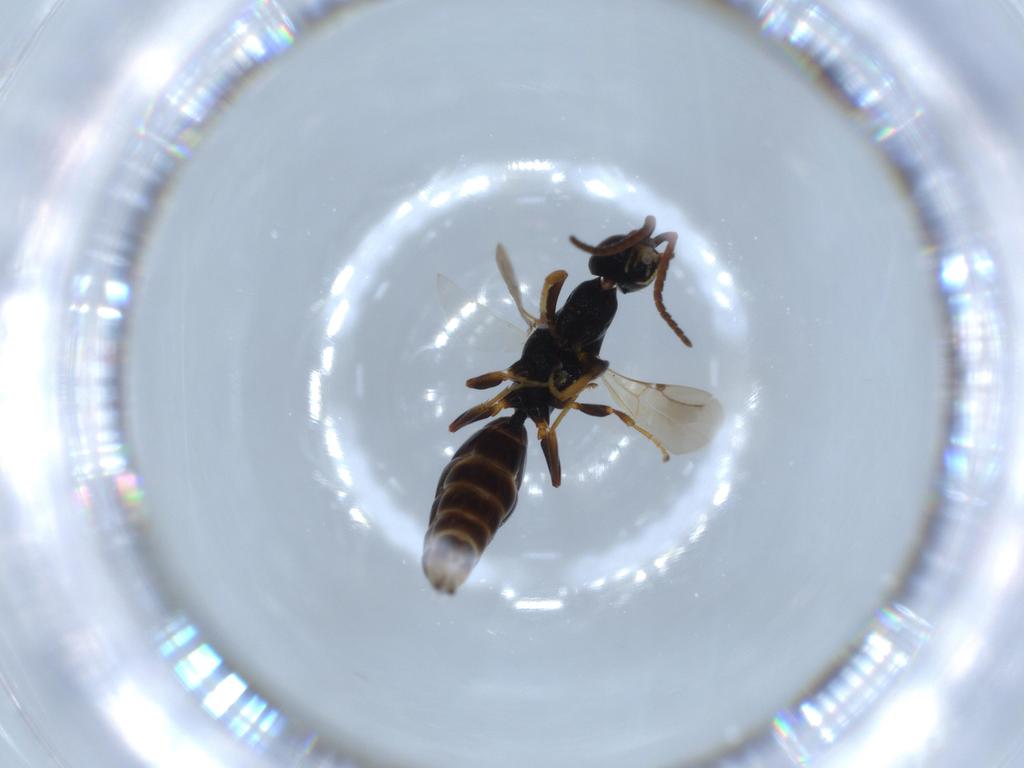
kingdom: Animalia
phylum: Arthropoda
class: Insecta
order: Hymenoptera
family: Bethylidae
